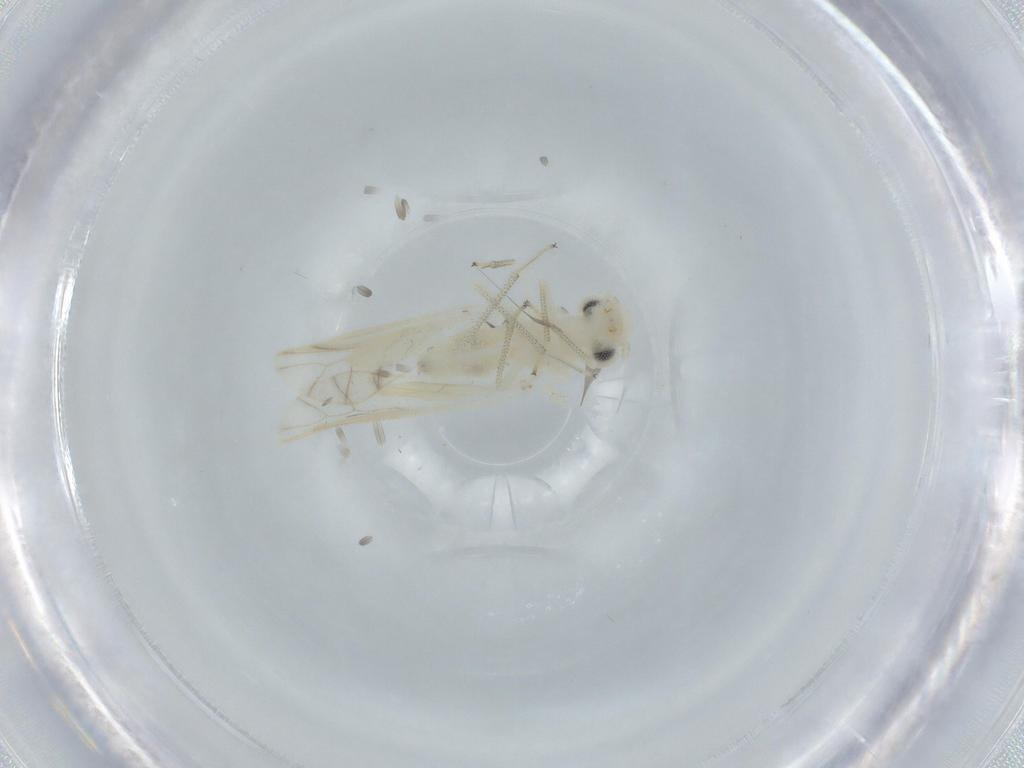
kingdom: Animalia
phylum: Arthropoda
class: Insecta
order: Psocodea
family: Caeciliusidae
